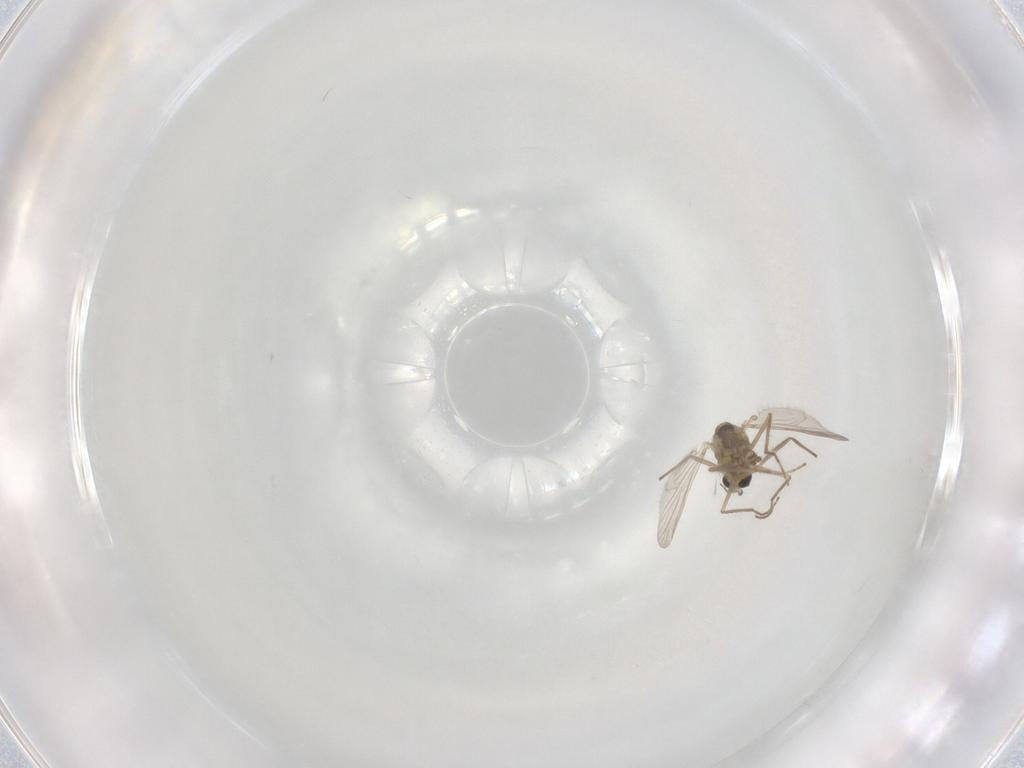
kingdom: Animalia
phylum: Arthropoda
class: Insecta
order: Diptera
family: Chironomidae
